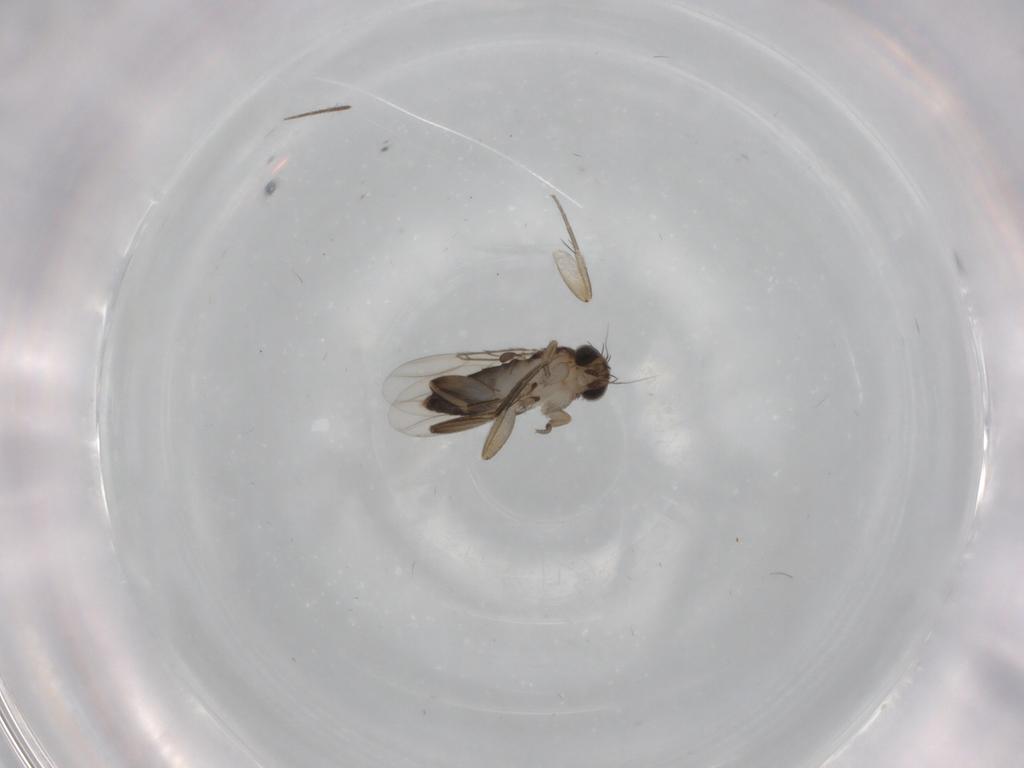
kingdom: Animalia
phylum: Arthropoda
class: Insecta
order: Diptera
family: Phoridae
